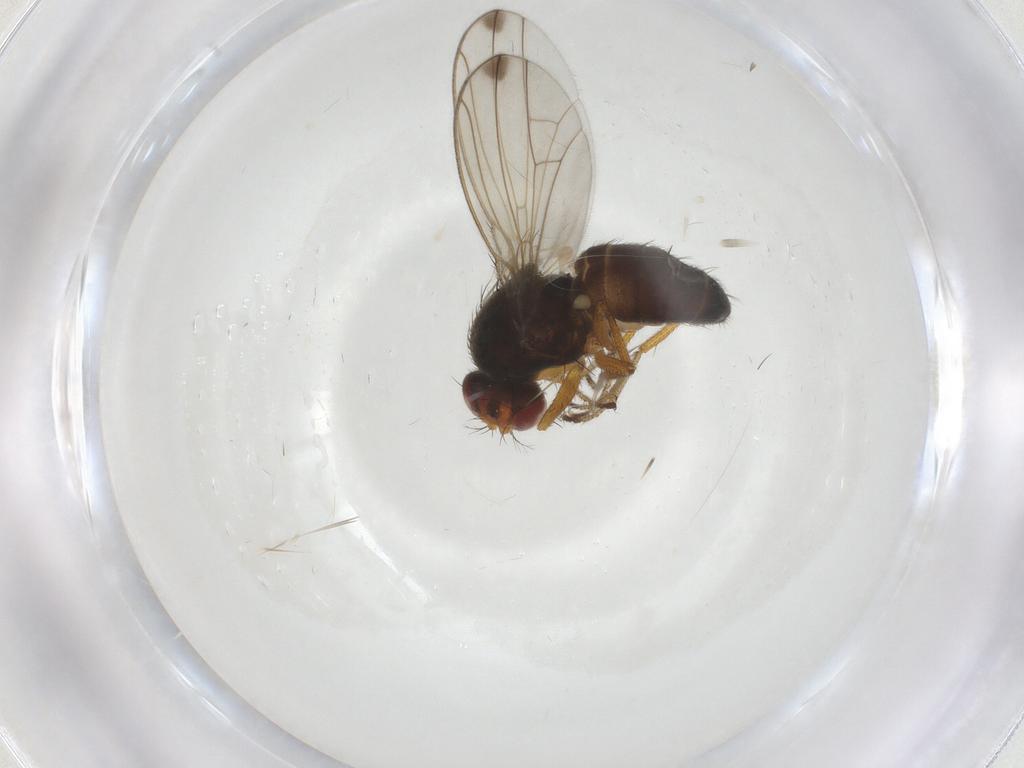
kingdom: Animalia
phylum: Arthropoda
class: Insecta
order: Diptera
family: Drosophilidae
